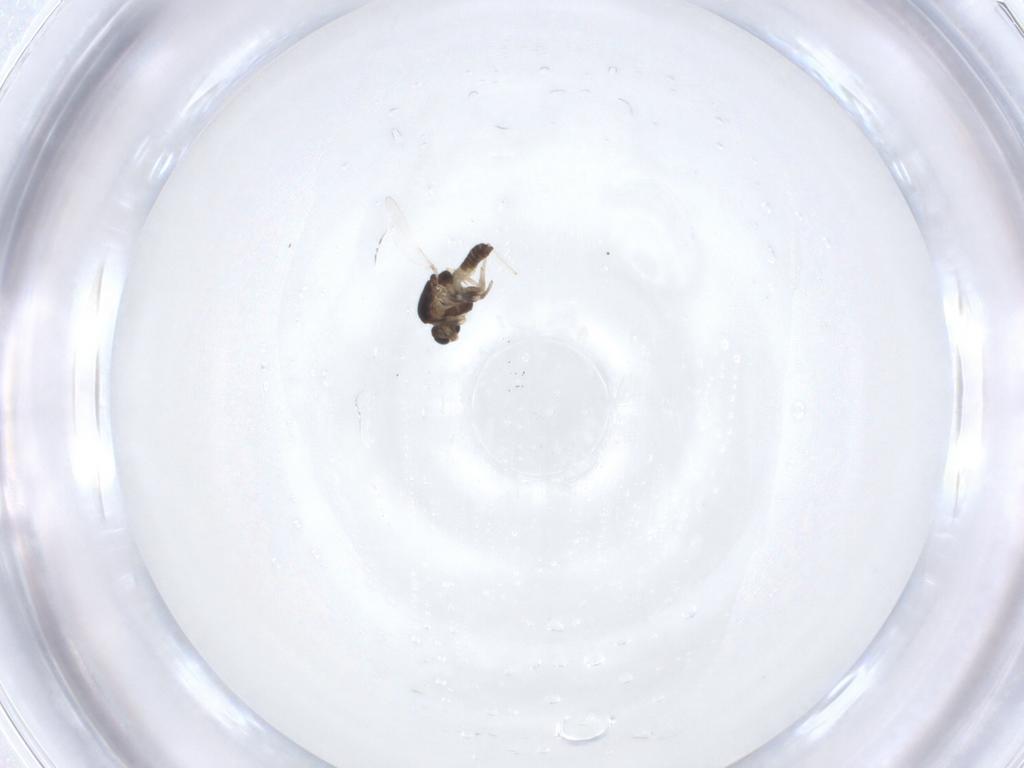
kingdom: Animalia
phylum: Arthropoda
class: Insecta
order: Diptera
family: Chironomidae
